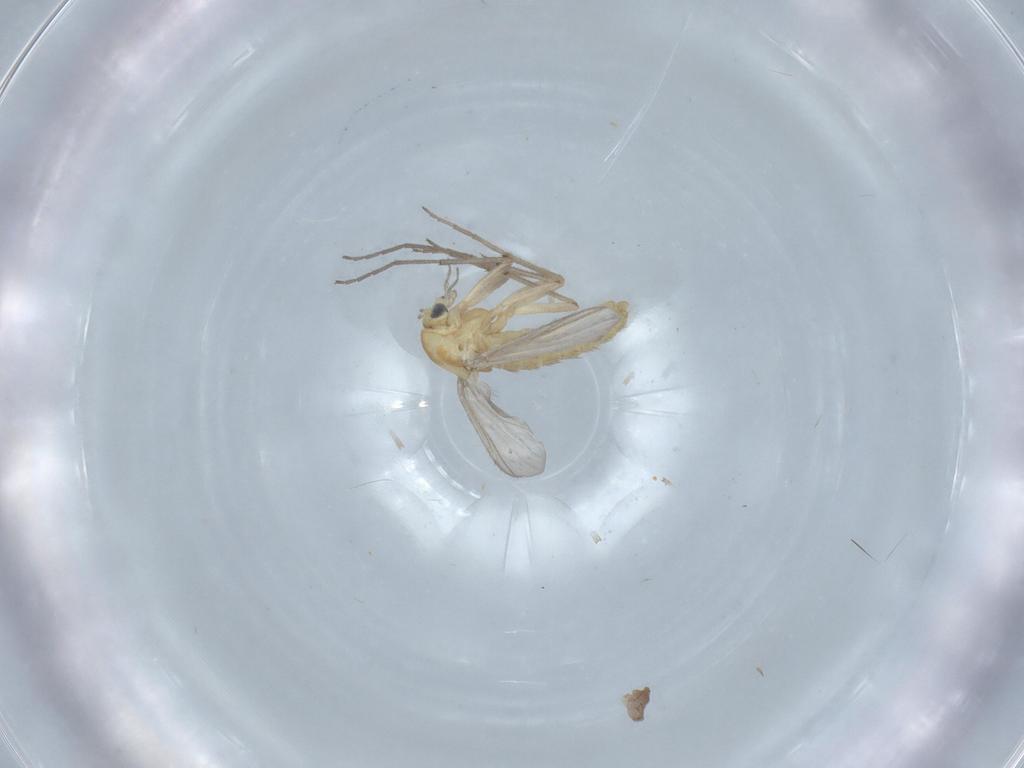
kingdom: Animalia
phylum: Arthropoda
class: Insecta
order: Diptera
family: Chironomidae
